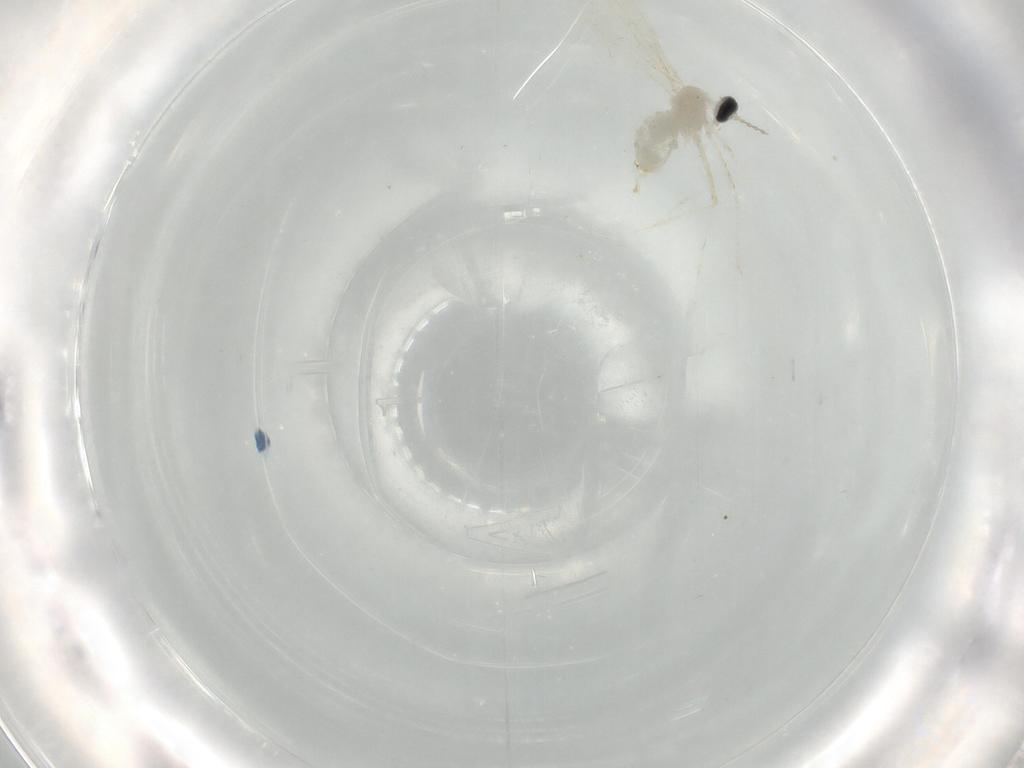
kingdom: Animalia
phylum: Arthropoda
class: Insecta
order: Diptera
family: Cecidomyiidae
